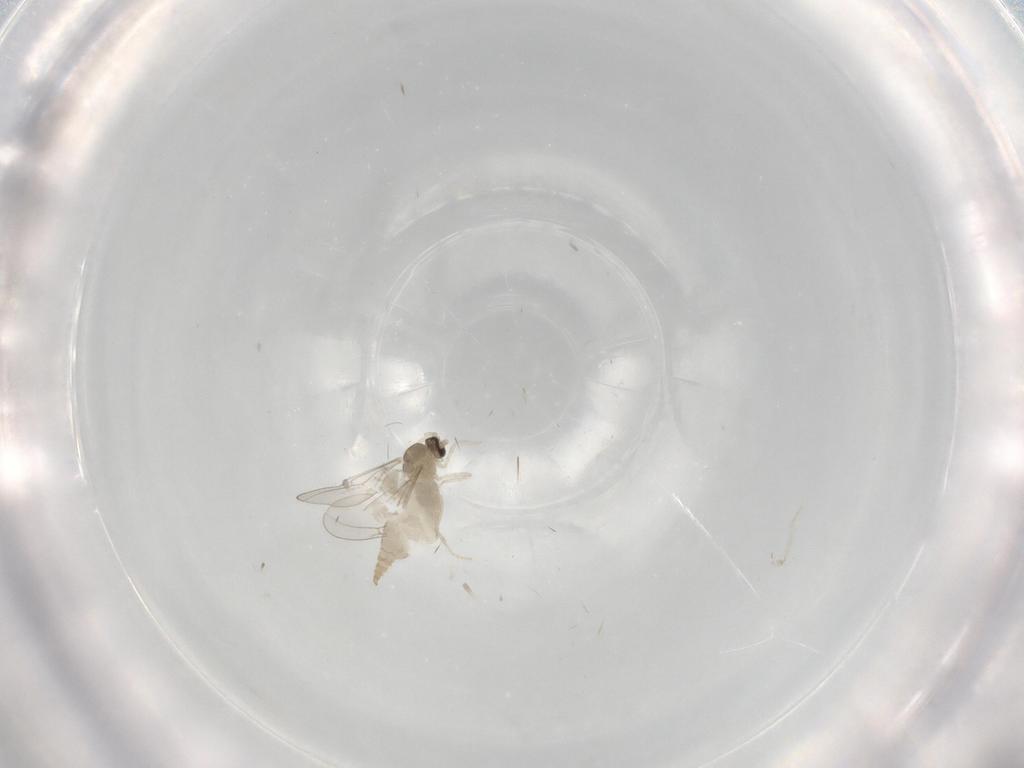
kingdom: Animalia
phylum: Arthropoda
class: Insecta
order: Diptera
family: Cecidomyiidae
